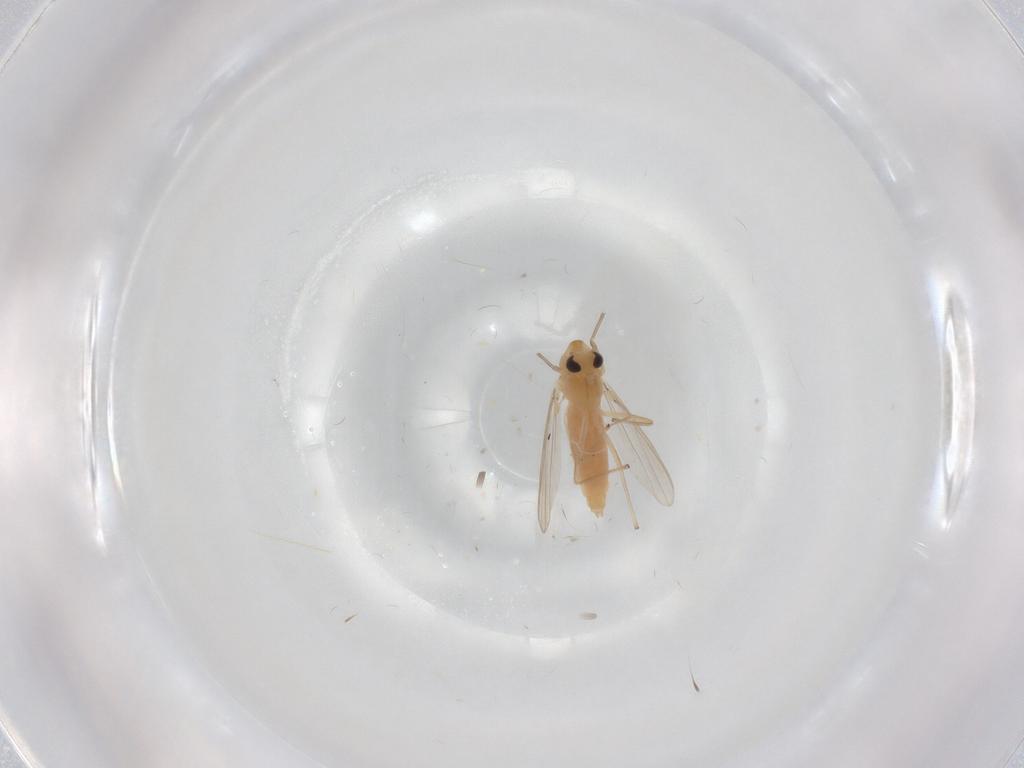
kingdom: Animalia
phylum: Arthropoda
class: Insecta
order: Diptera
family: Chironomidae
